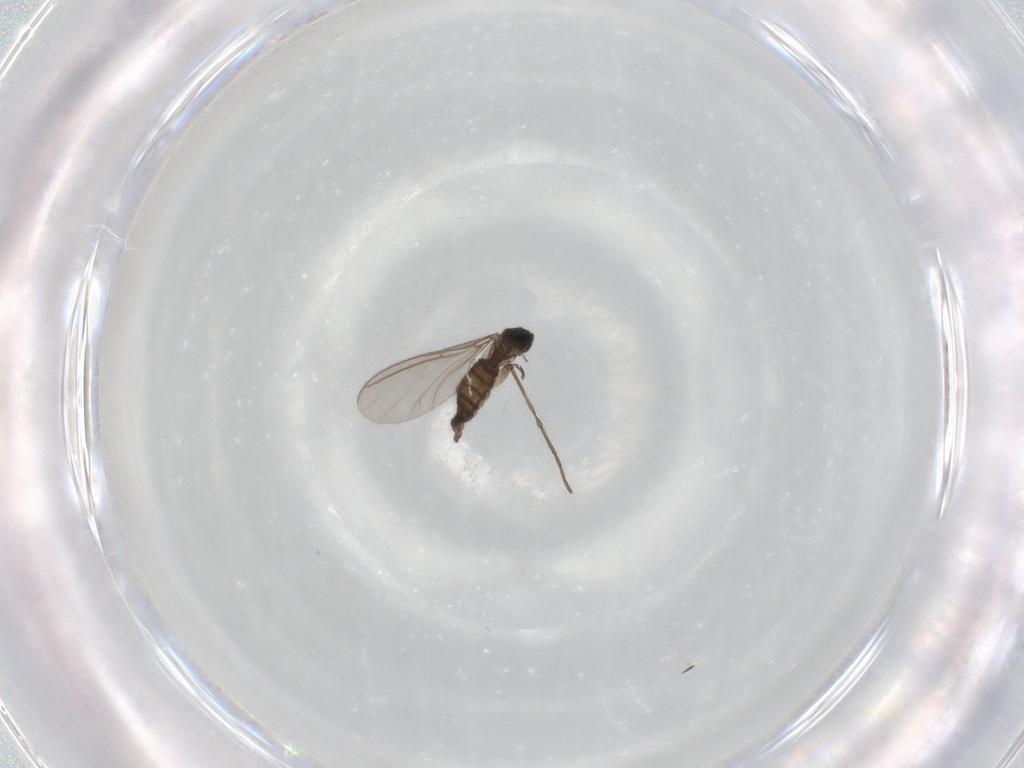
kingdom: Animalia
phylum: Arthropoda
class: Insecta
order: Diptera
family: Sciaridae
